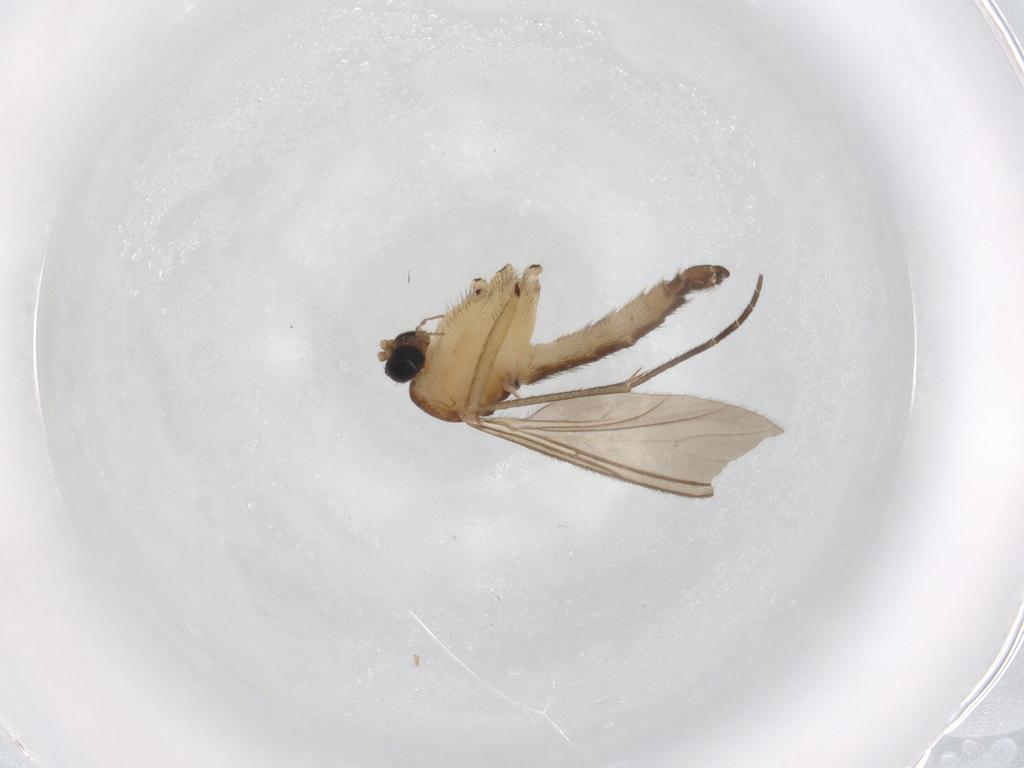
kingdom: Animalia
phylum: Arthropoda
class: Insecta
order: Diptera
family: Sciaridae
